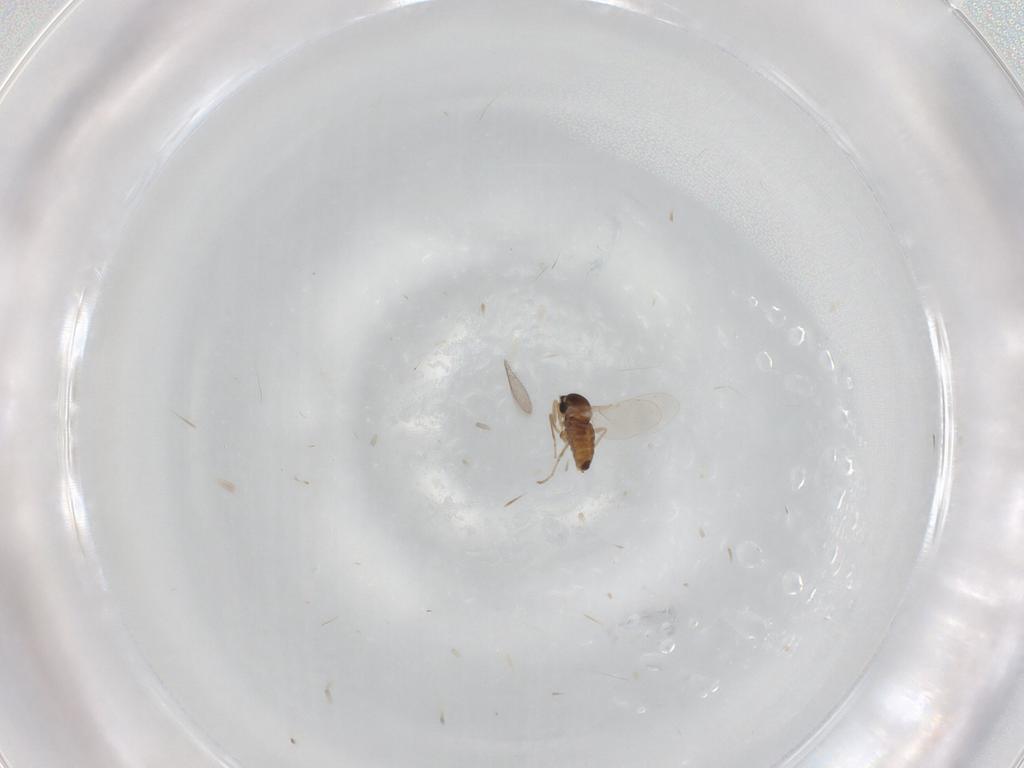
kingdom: Animalia
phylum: Arthropoda
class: Insecta
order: Diptera
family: Cecidomyiidae
